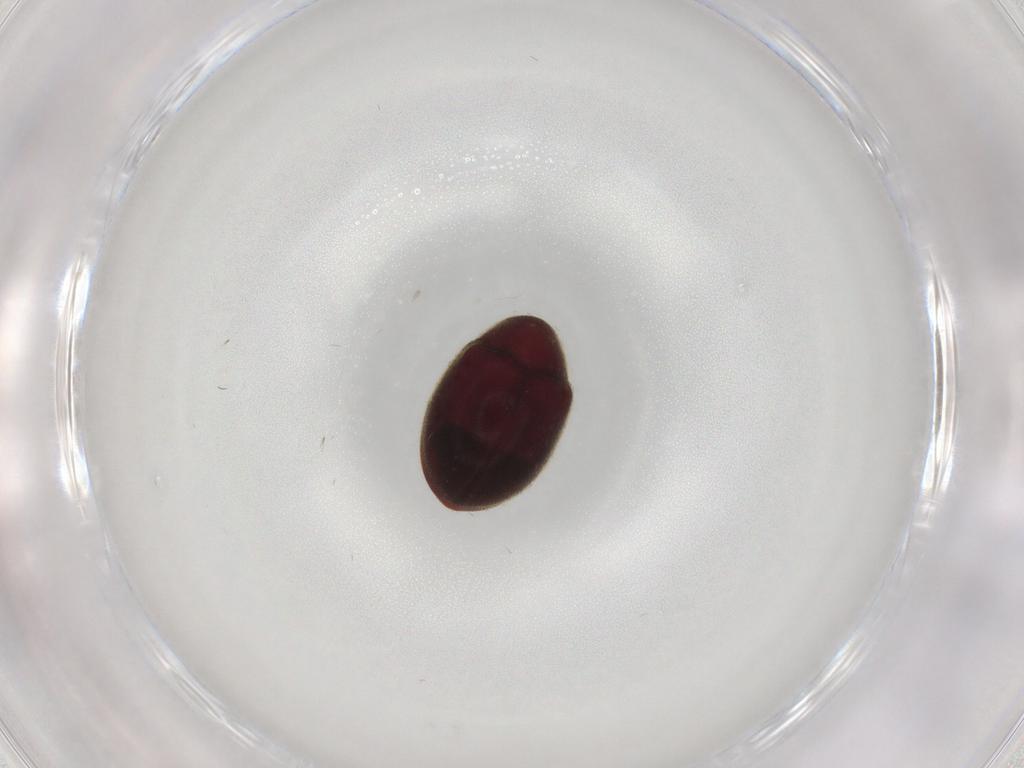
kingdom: Animalia
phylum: Arthropoda
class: Insecta
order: Coleoptera
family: Ptinidae
